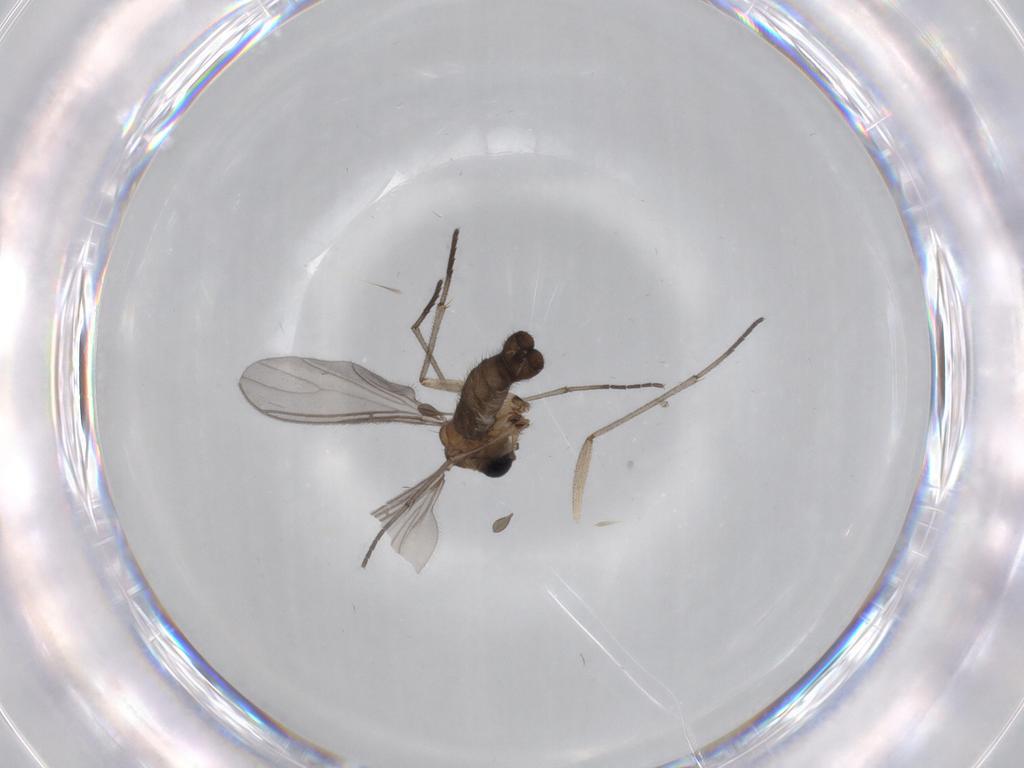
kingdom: Animalia
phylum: Arthropoda
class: Insecta
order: Diptera
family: Sciaridae
